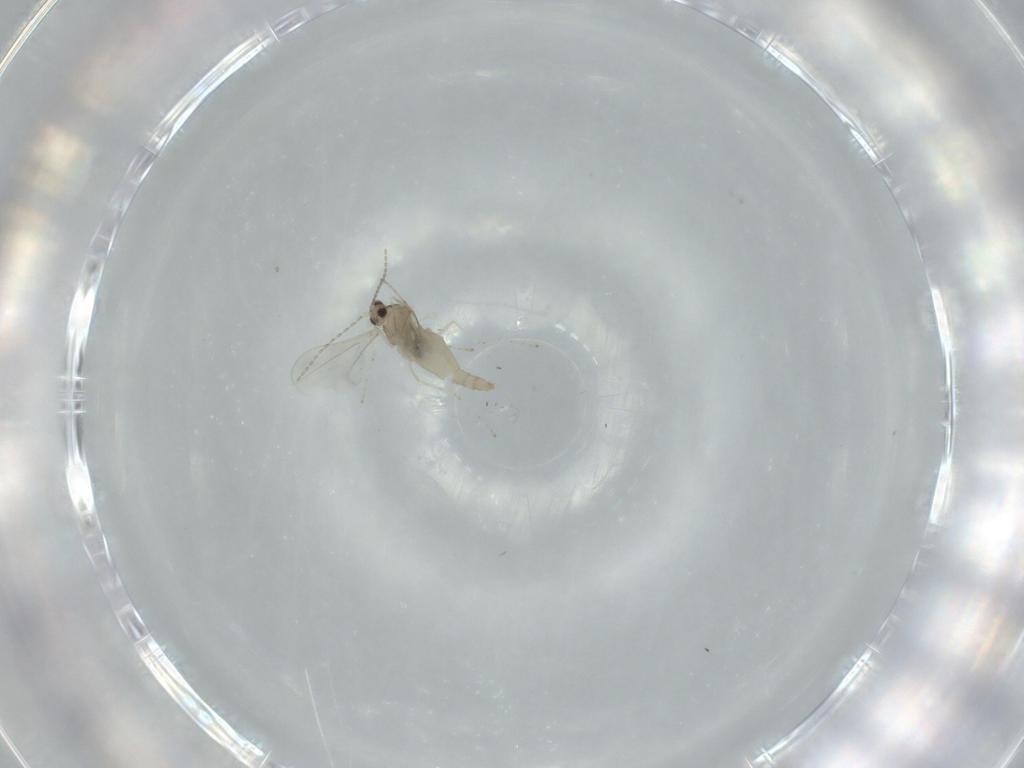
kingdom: Animalia
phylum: Arthropoda
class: Insecta
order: Diptera
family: Cecidomyiidae
